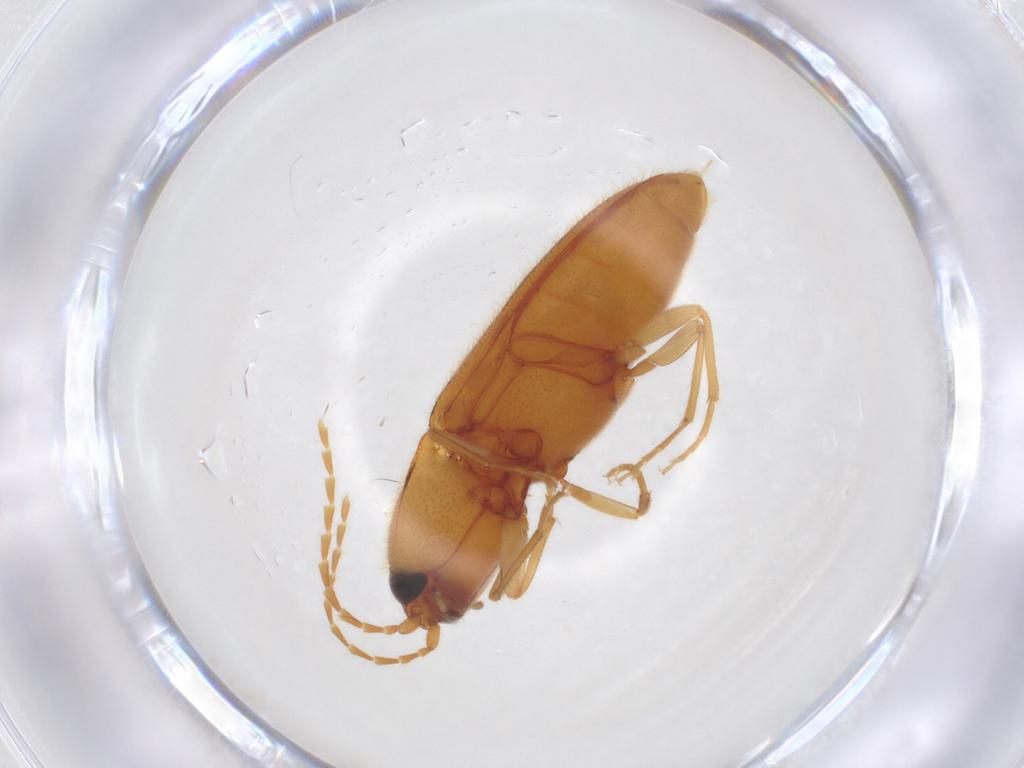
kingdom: Animalia
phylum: Arthropoda
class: Insecta
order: Coleoptera
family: Elateridae
